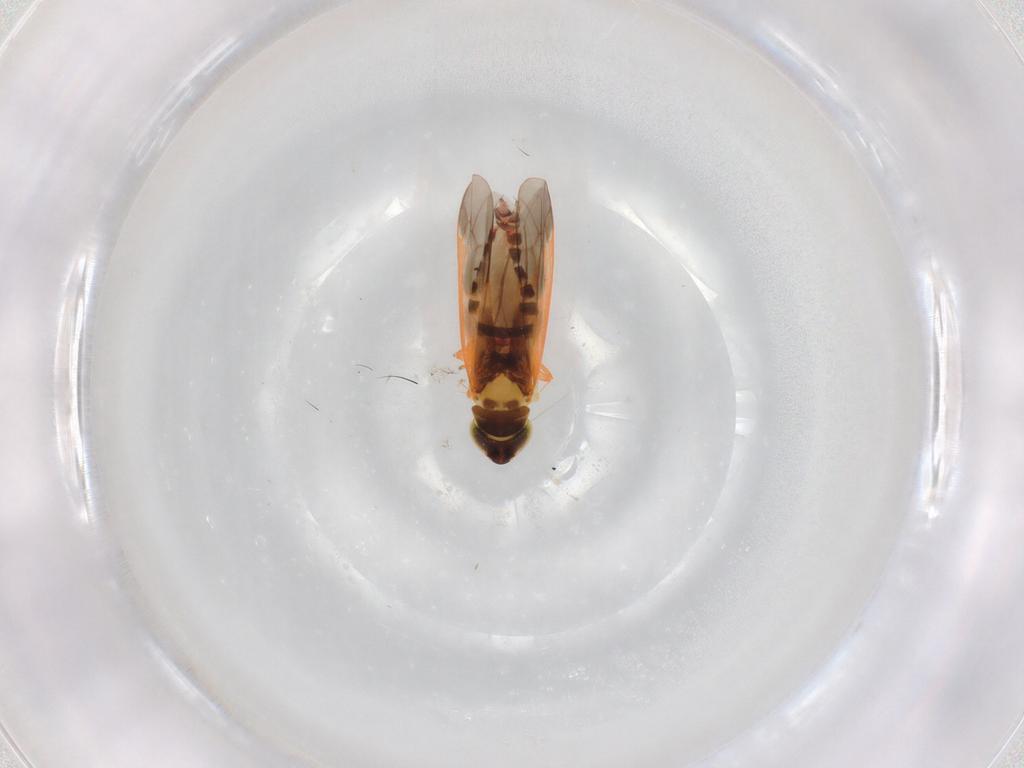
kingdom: Animalia
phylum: Arthropoda
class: Insecta
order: Hemiptera
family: Cicadellidae
